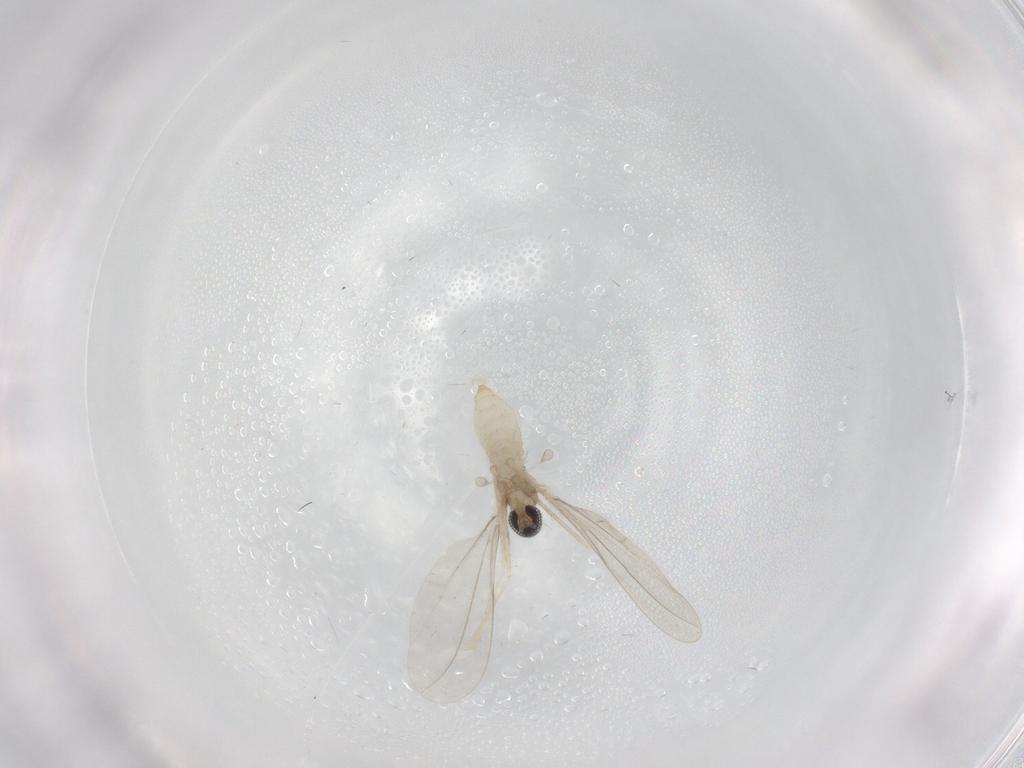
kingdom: Animalia
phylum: Arthropoda
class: Insecta
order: Diptera
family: Cecidomyiidae
